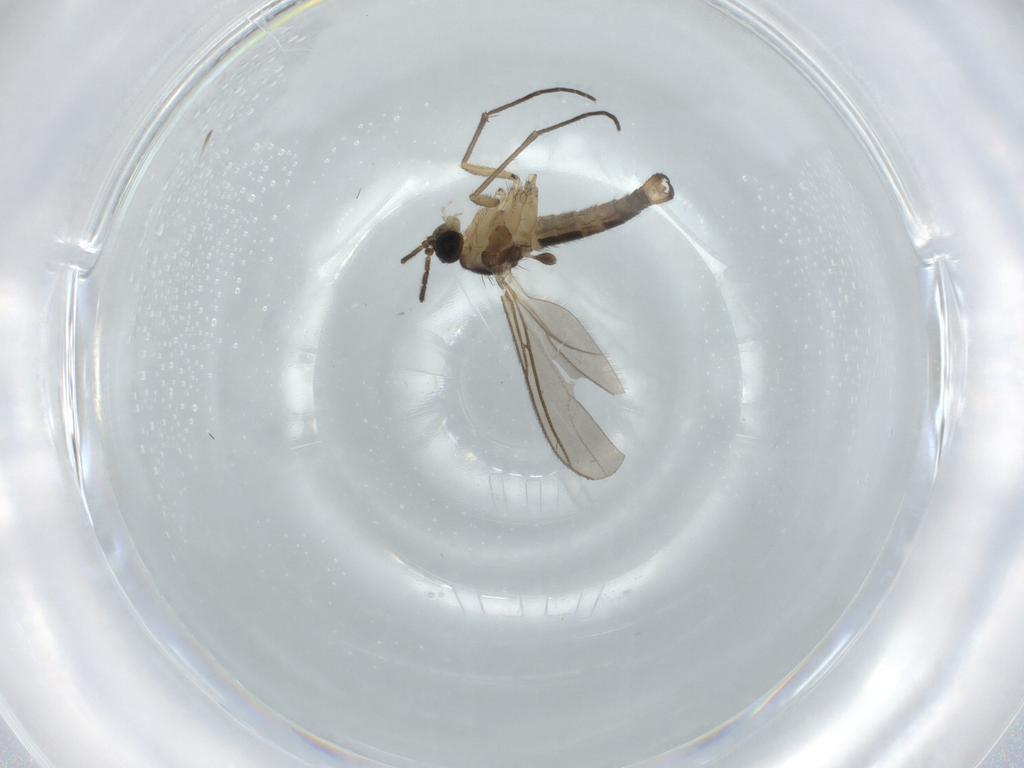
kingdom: Animalia
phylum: Arthropoda
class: Insecta
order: Diptera
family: Sciaridae
